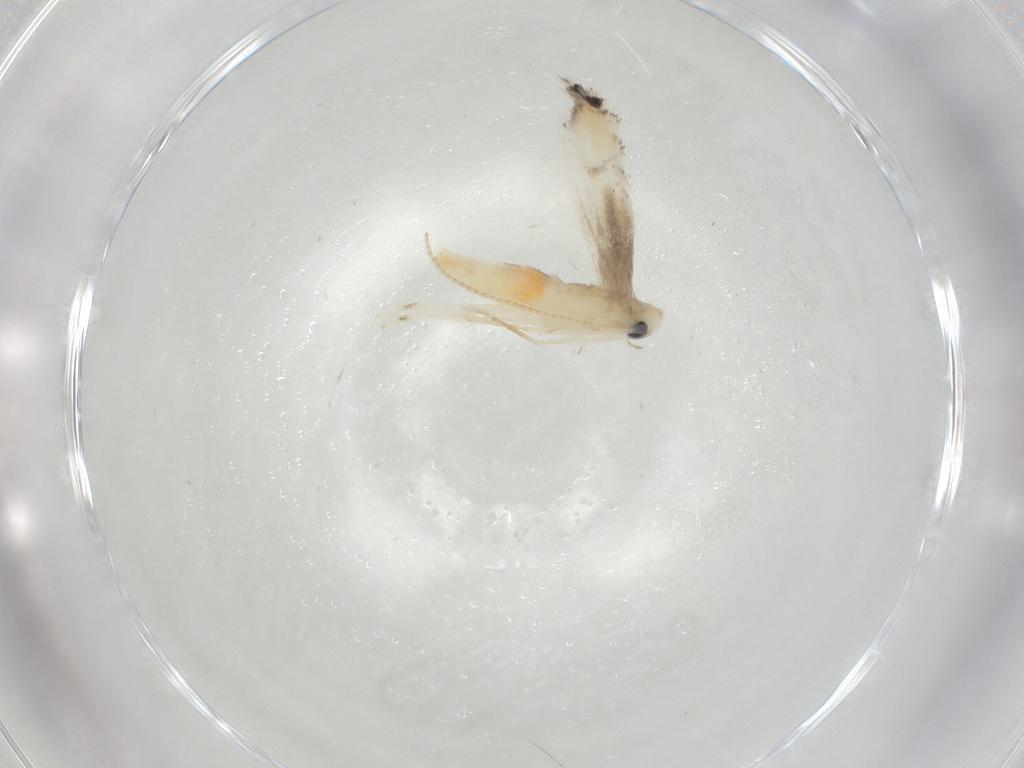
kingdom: Animalia
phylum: Arthropoda
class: Insecta
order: Lepidoptera
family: Gracillariidae
